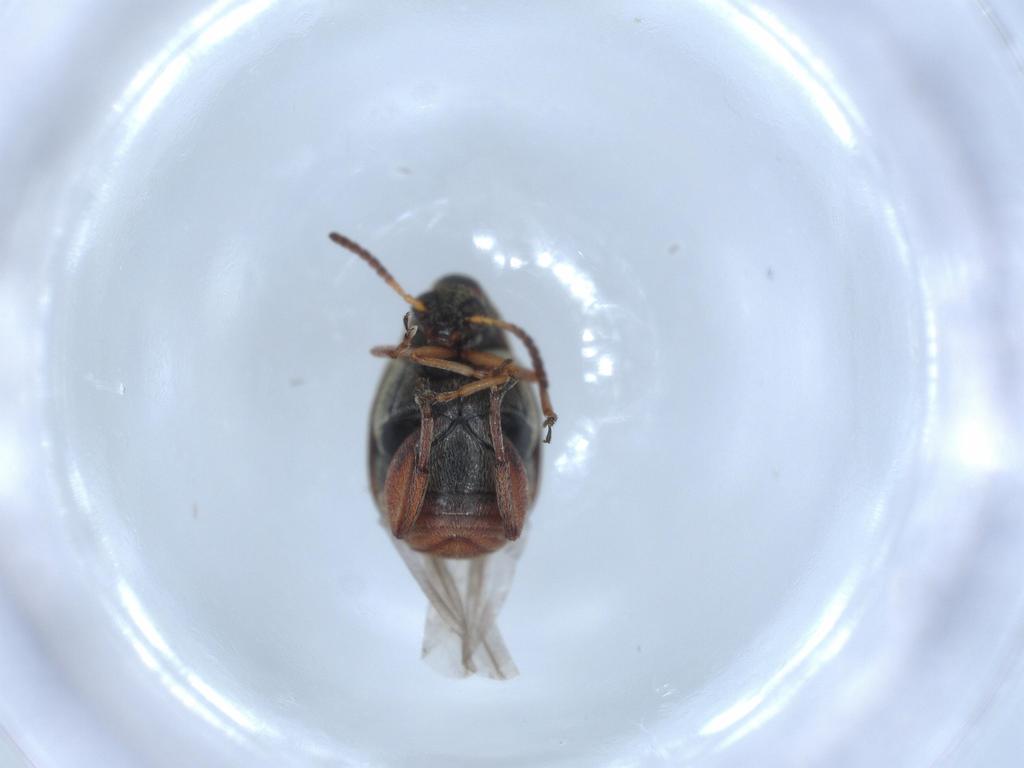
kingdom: Animalia
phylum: Arthropoda
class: Insecta
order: Coleoptera
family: Chrysomelidae
